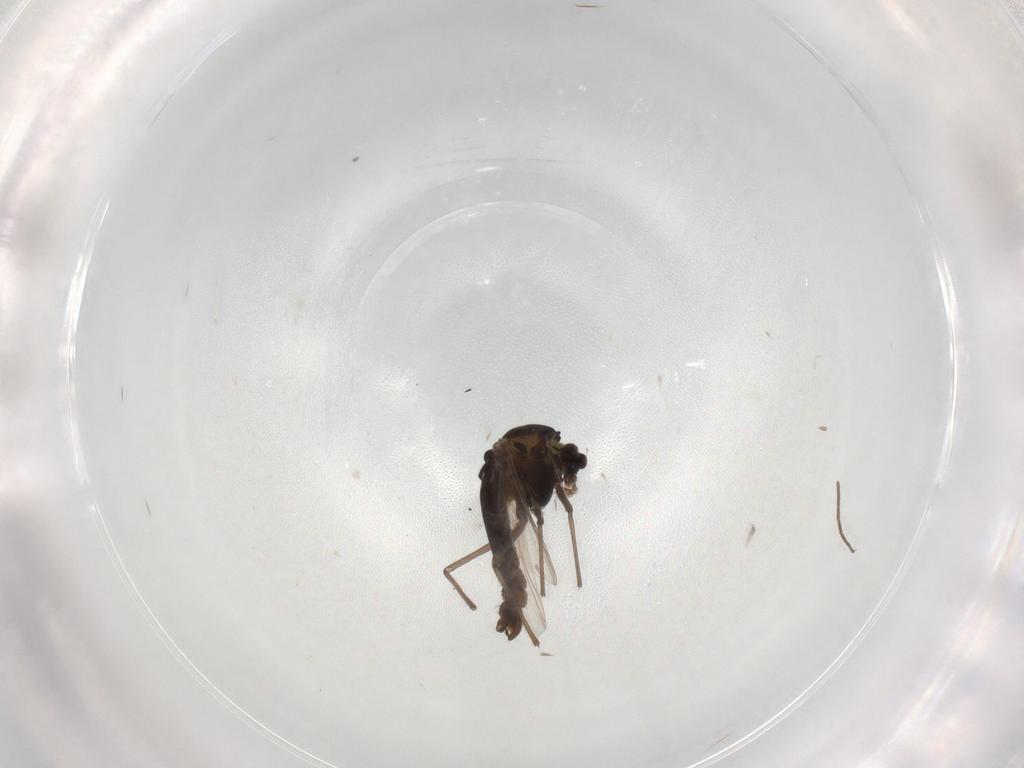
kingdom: Animalia
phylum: Arthropoda
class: Insecta
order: Diptera
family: Chironomidae
